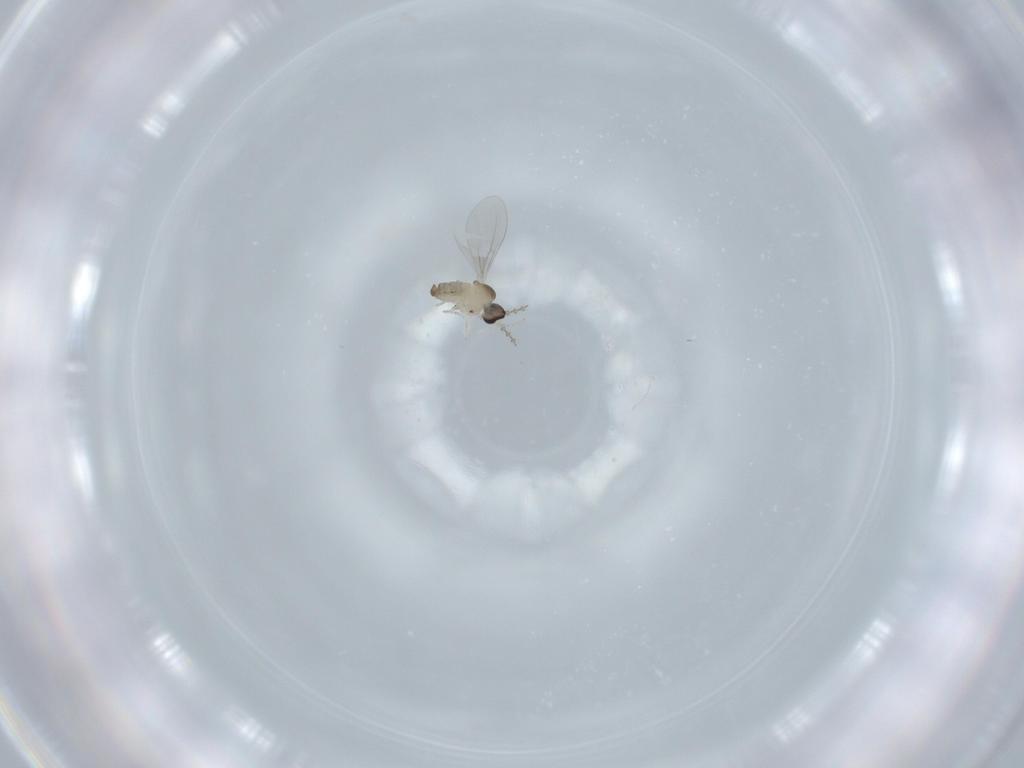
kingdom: Animalia
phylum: Arthropoda
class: Insecta
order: Diptera
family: Cecidomyiidae
